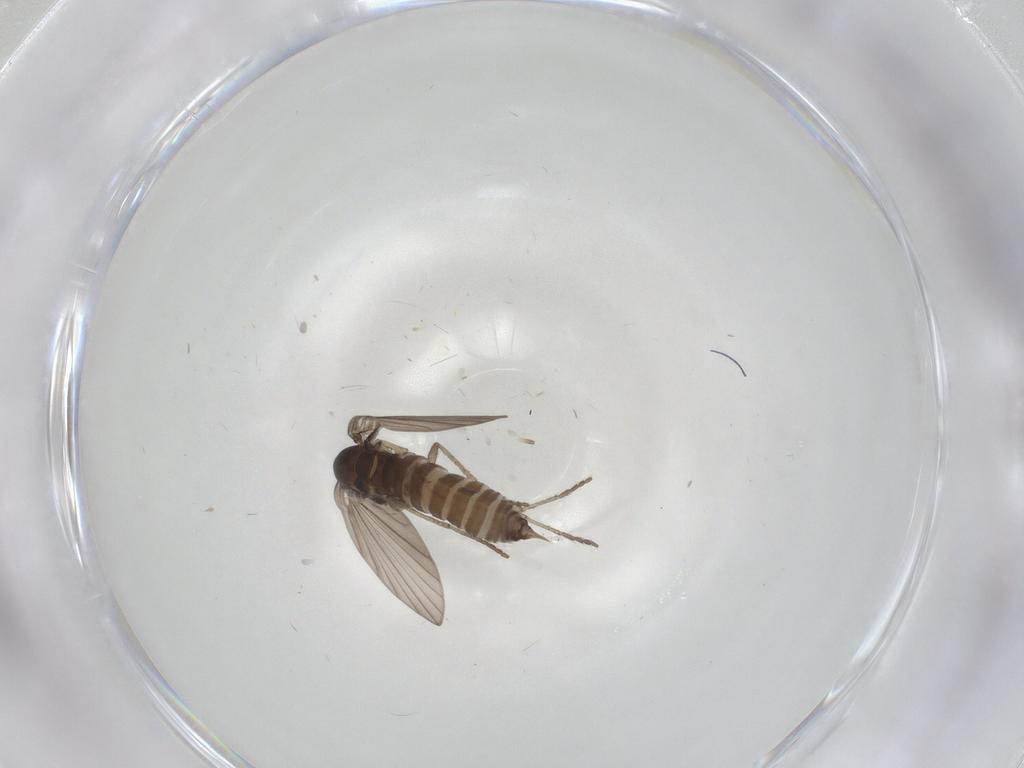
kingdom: Animalia
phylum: Arthropoda
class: Insecta
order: Diptera
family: Psychodidae
